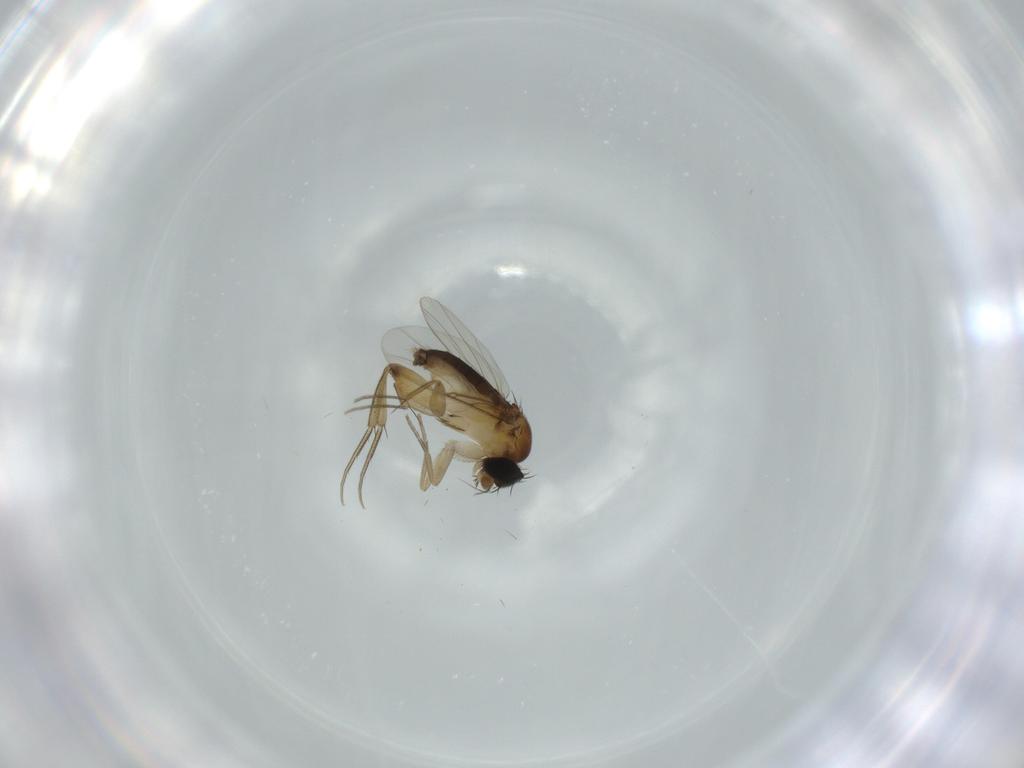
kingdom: Animalia
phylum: Arthropoda
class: Insecta
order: Diptera
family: Phoridae
